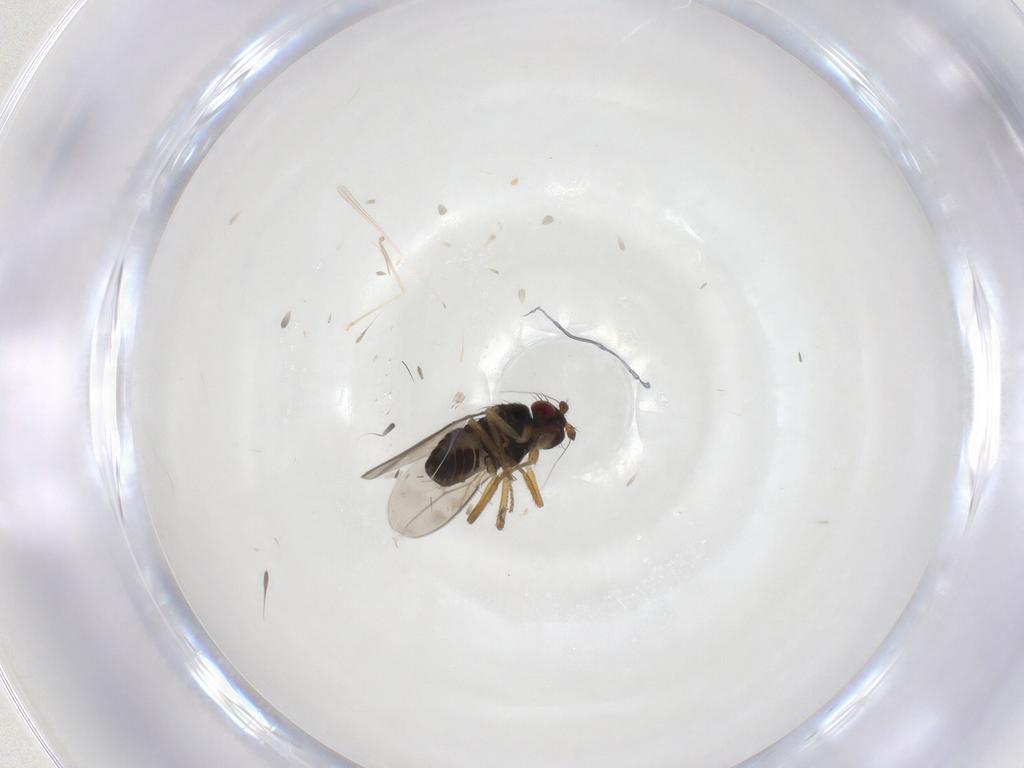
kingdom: Animalia
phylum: Arthropoda
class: Insecta
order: Diptera
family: Sphaeroceridae
